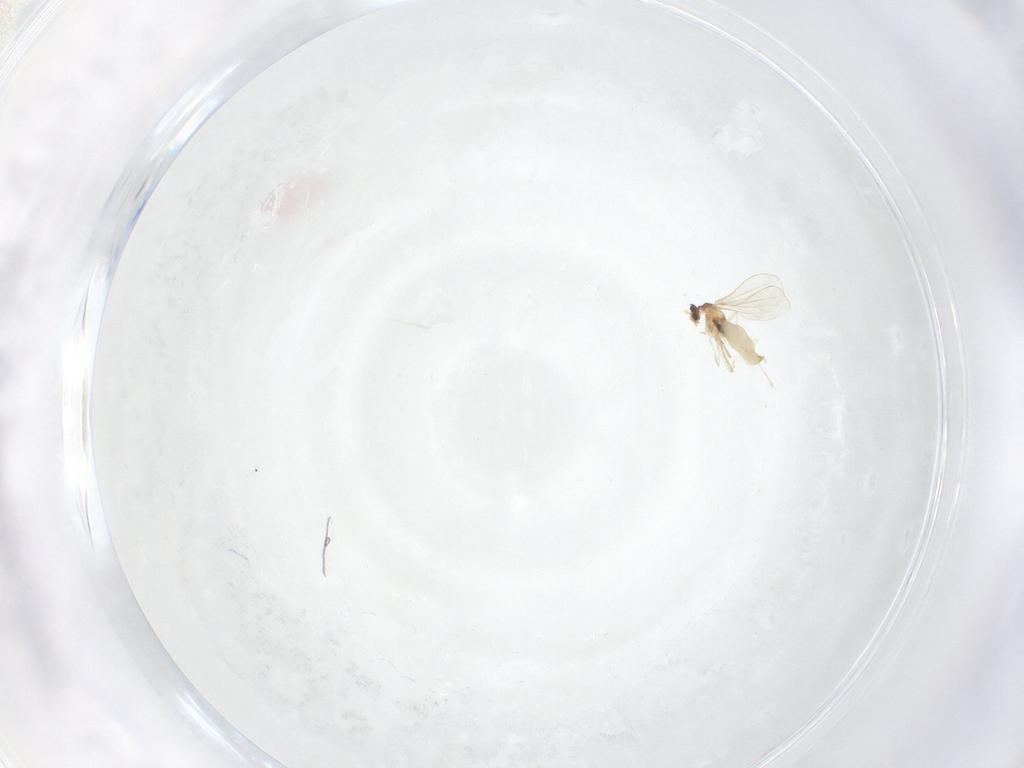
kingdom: Animalia
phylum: Arthropoda
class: Insecta
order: Diptera
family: Cecidomyiidae
